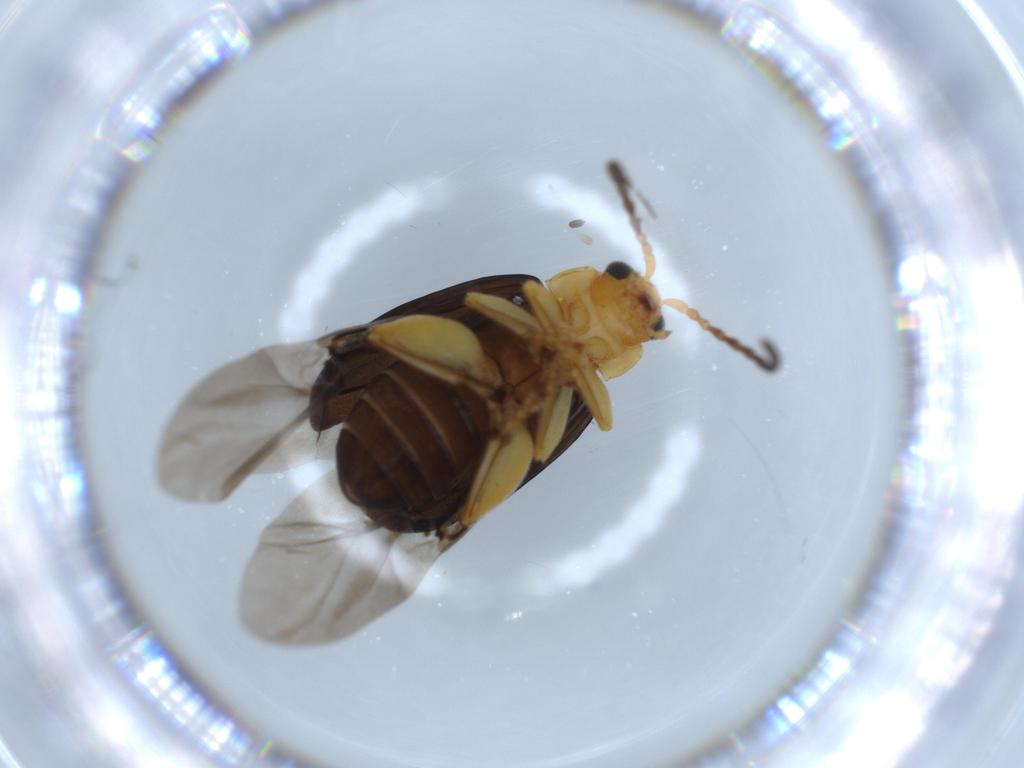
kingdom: Animalia
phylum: Arthropoda
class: Insecta
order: Coleoptera
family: Chrysomelidae
